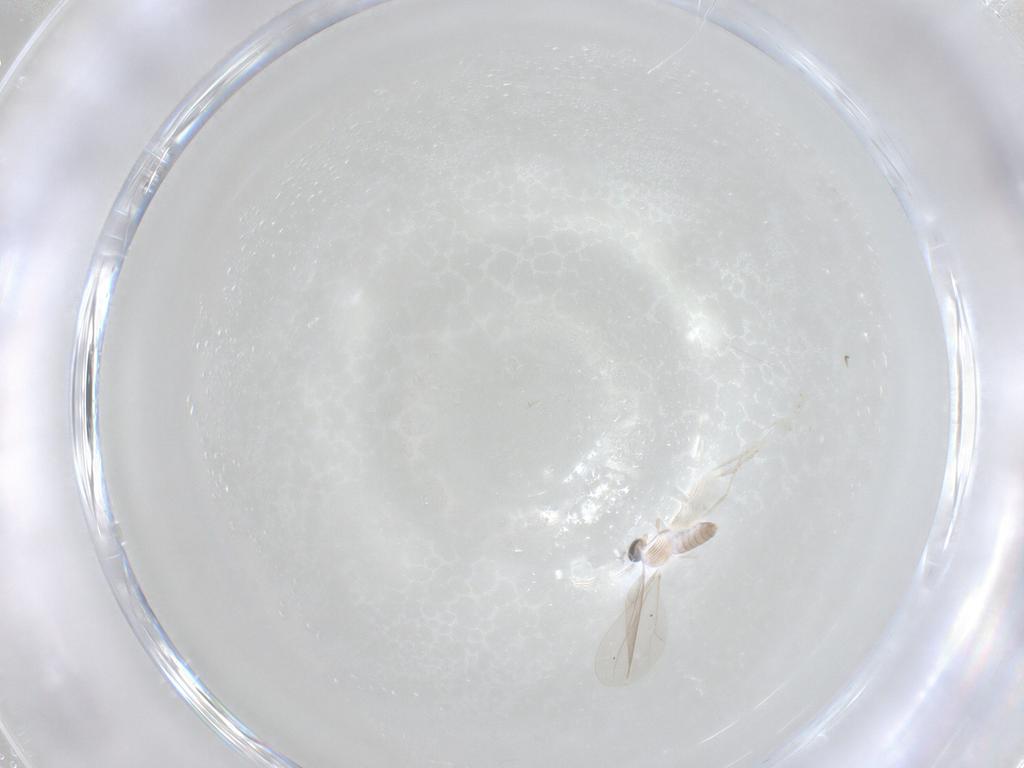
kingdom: Animalia
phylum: Arthropoda
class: Insecta
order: Diptera
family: Cecidomyiidae
